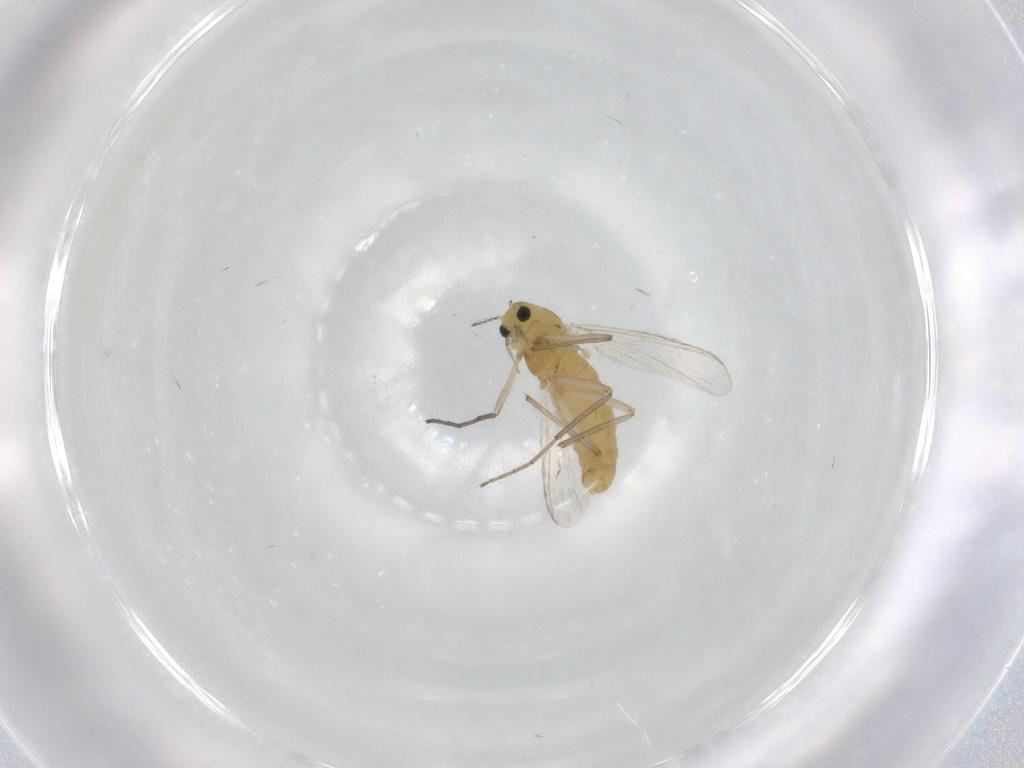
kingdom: Animalia
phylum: Arthropoda
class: Insecta
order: Diptera
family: Chironomidae
